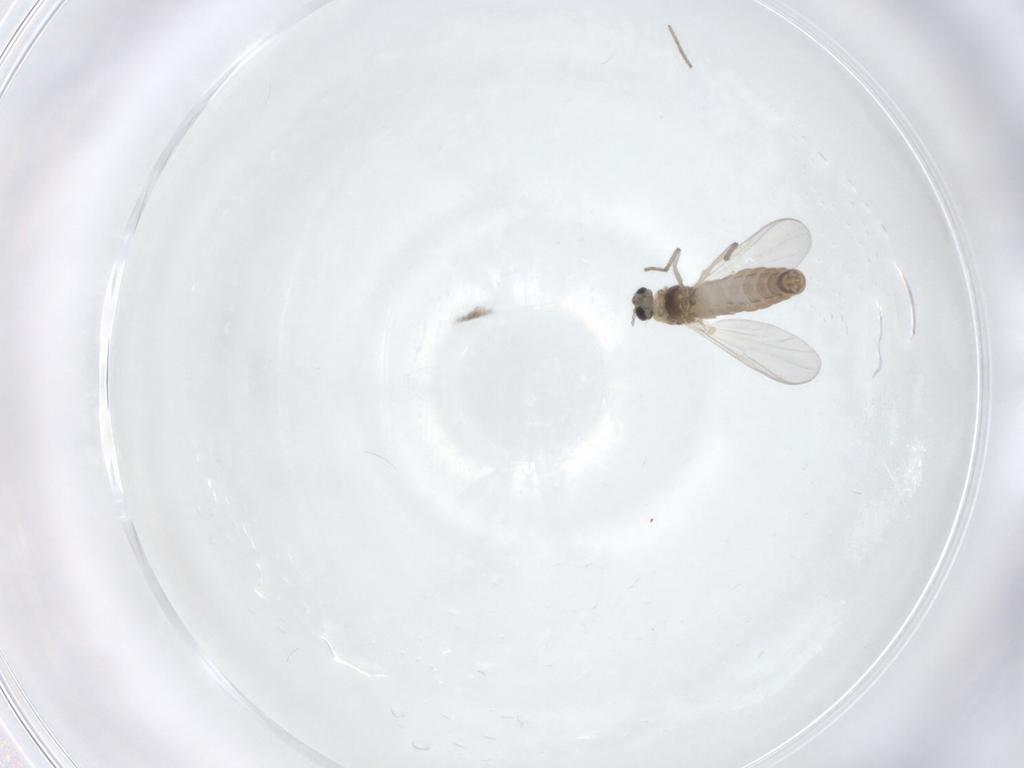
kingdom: Animalia
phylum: Arthropoda
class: Insecta
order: Diptera
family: Chironomidae
